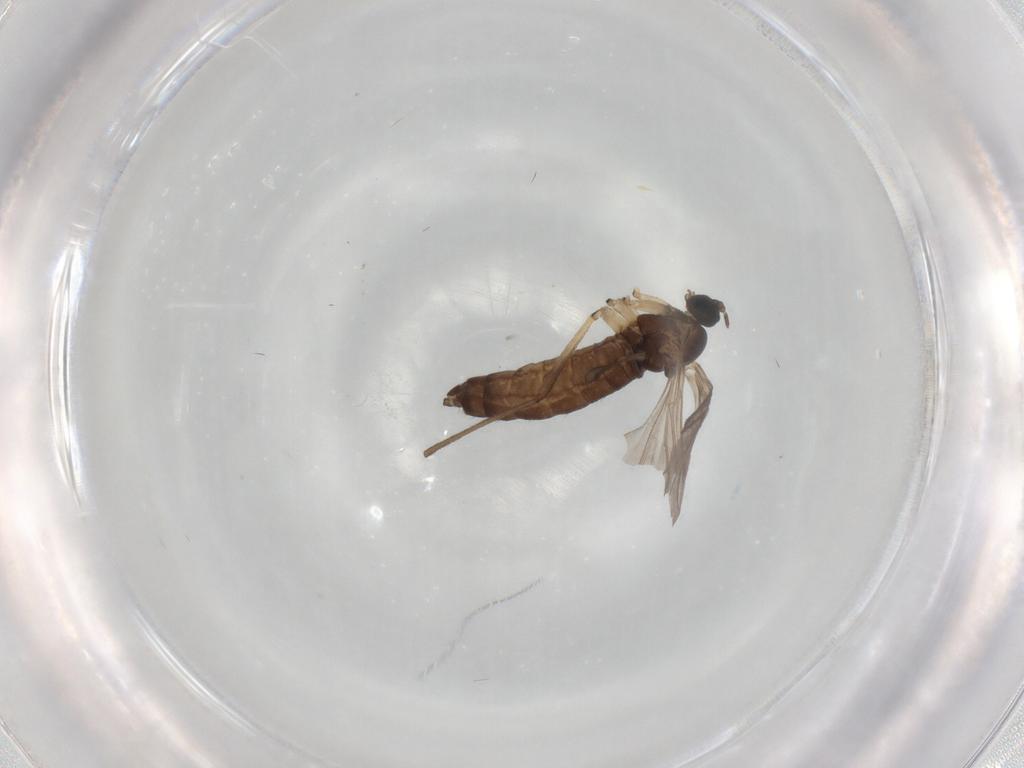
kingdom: Animalia
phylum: Arthropoda
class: Insecta
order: Diptera
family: Sciaridae
